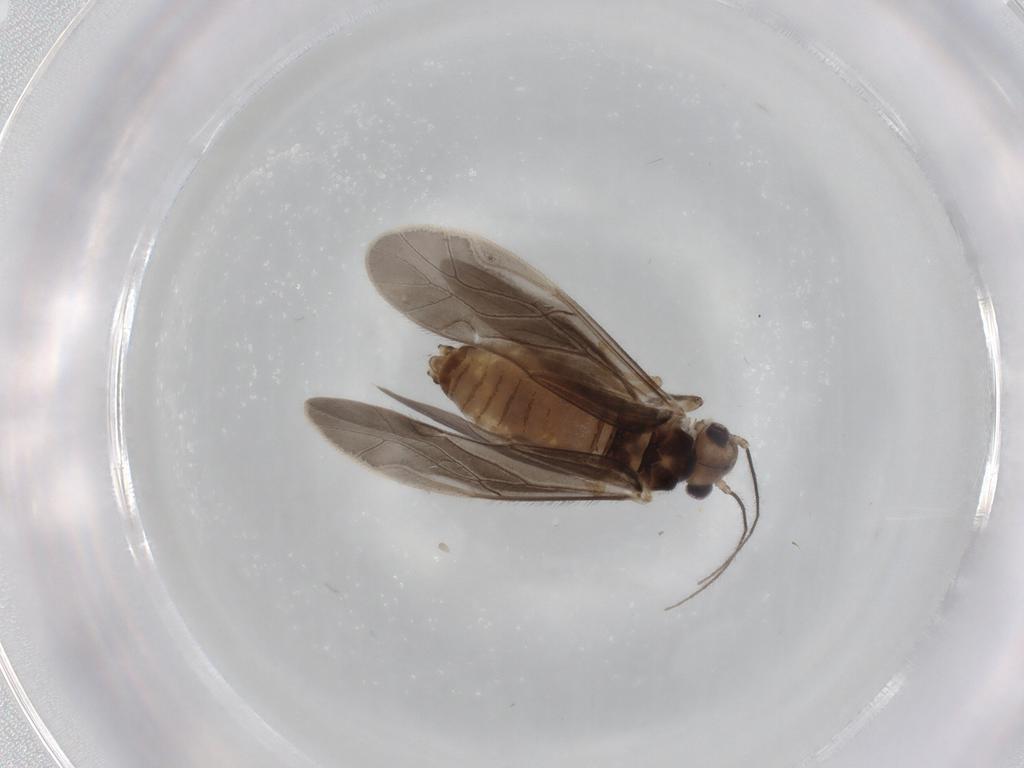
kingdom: Animalia
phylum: Arthropoda
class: Insecta
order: Psocodea
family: Caeciliusidae
